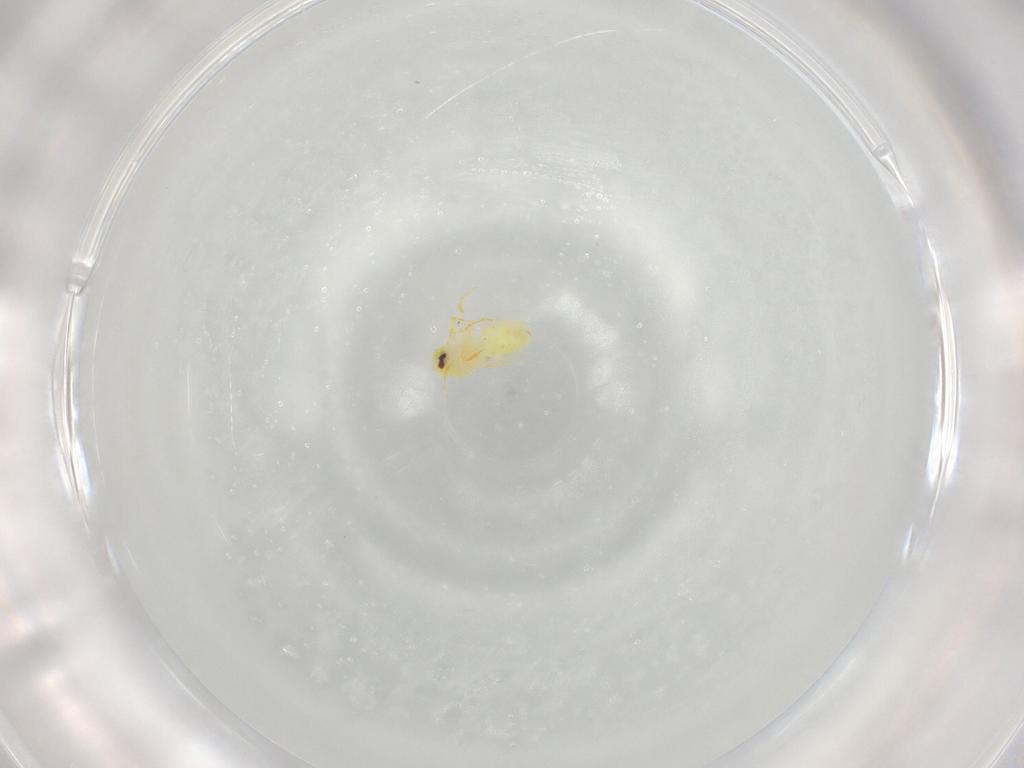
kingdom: Animalia
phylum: Arthropoda
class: Insecta
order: Hemiptera
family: Aleyrodidae
